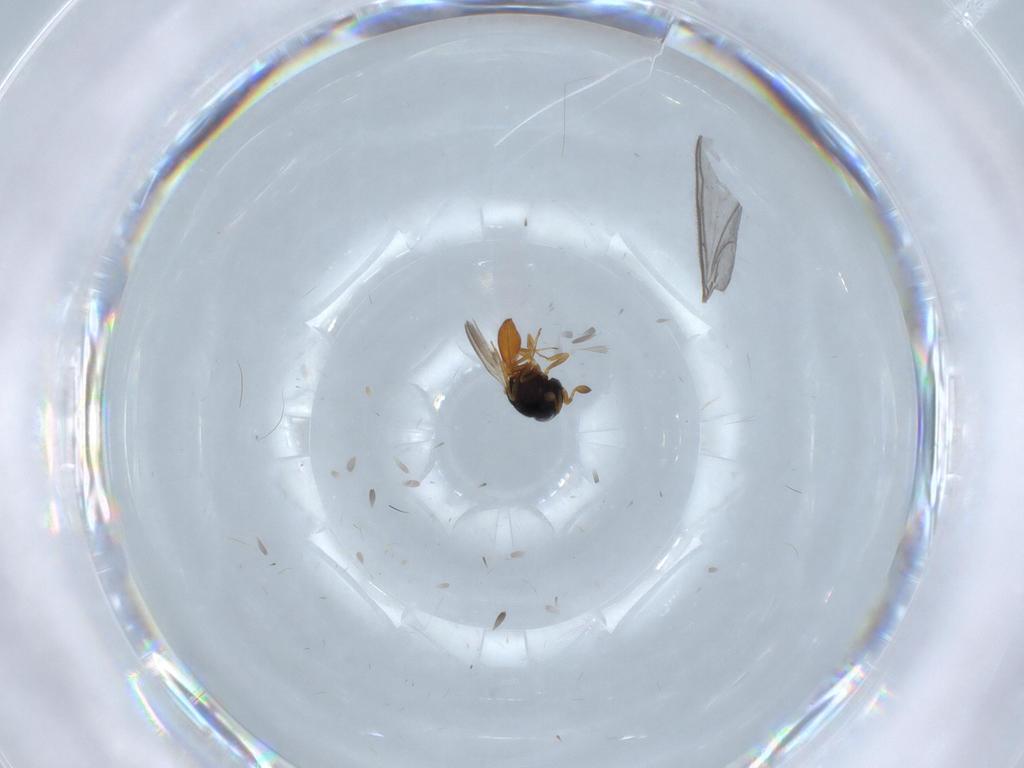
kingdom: Animalia
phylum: Arthropoda
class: Insecta
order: Hymenoptera
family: Scelionidae
